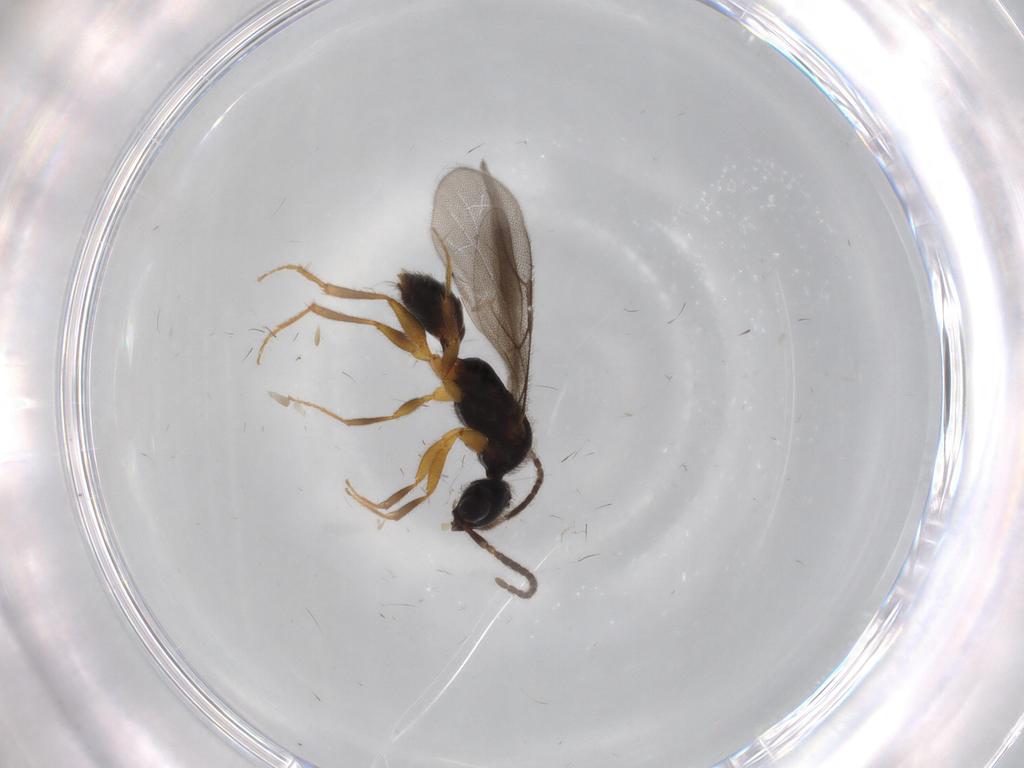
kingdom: Animalia
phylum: Arthropoda
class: Insecta
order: Hymenoptera
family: Bethylidae
